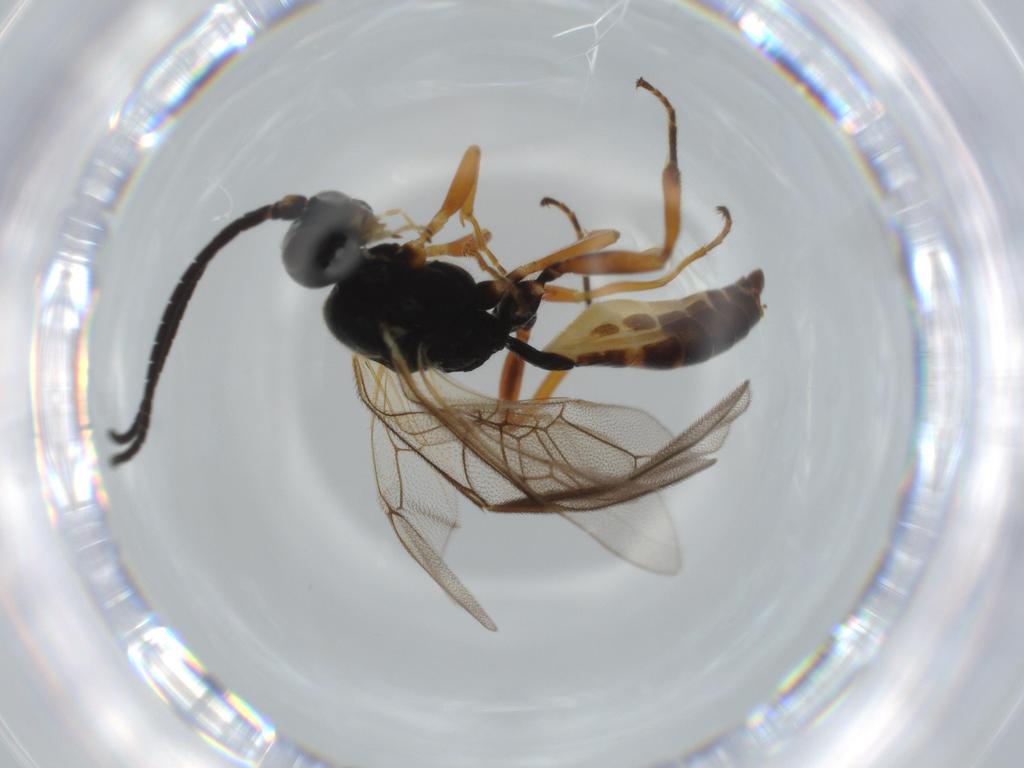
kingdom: Animalia
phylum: Arthropoda
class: Insecta
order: Hymenoptera
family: Ichneumonidae
